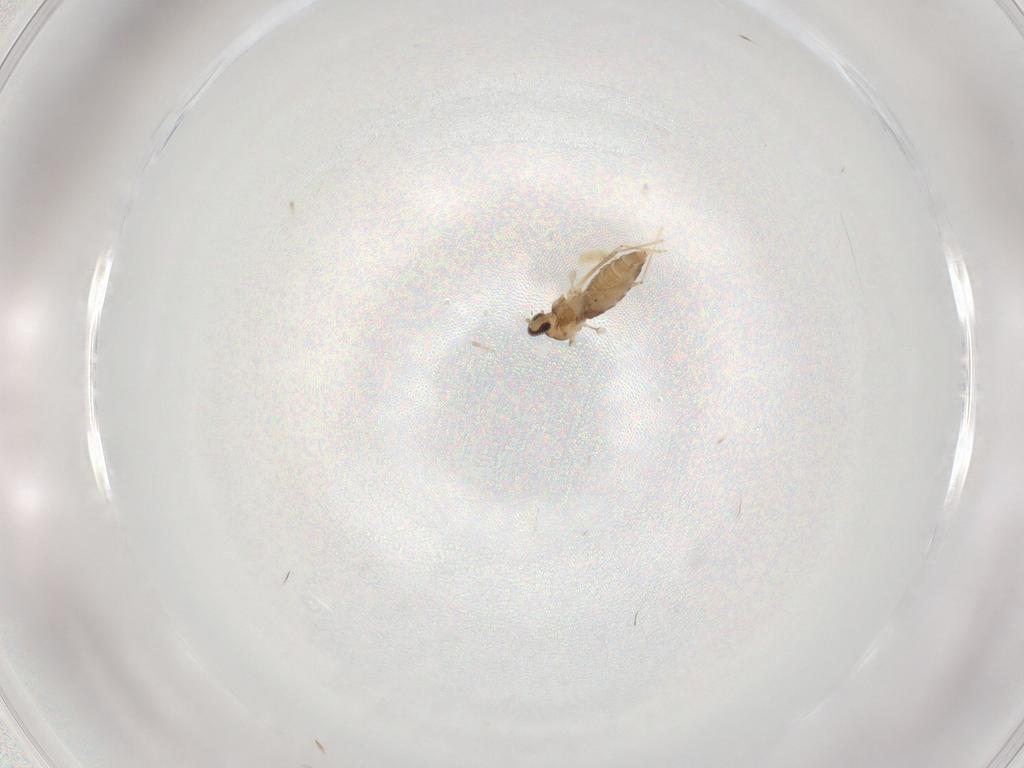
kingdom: Animalia
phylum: Arthropoda
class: Insecta
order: Diptera
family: Tachinidae
